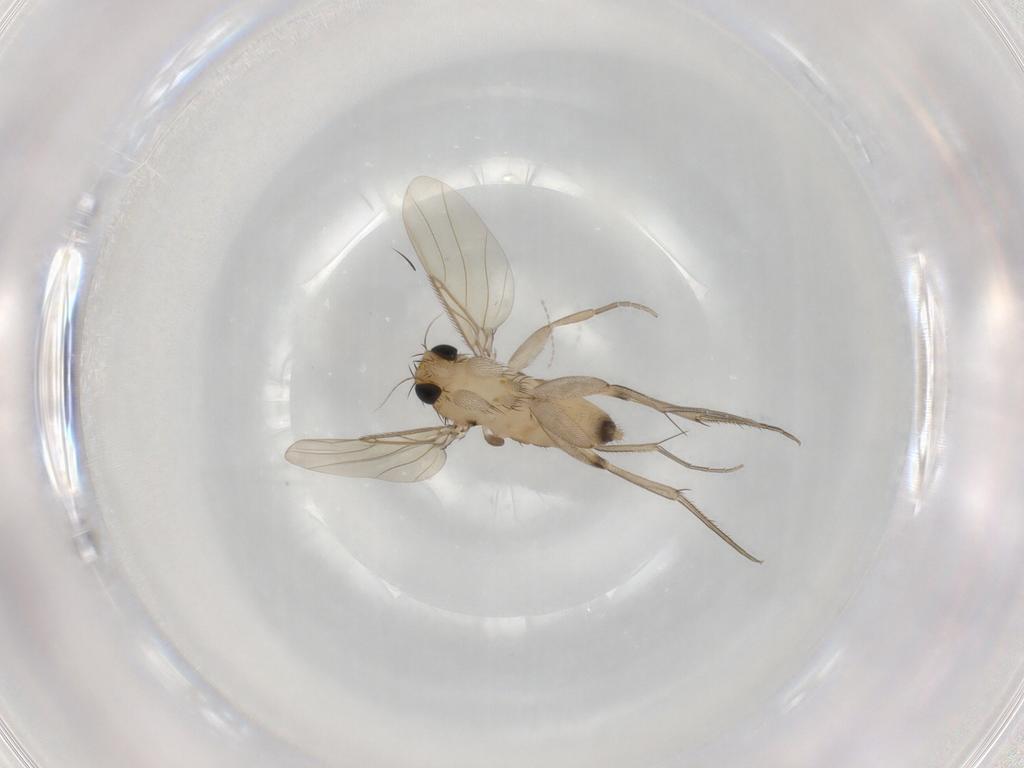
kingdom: Animalia
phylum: Arthropoda
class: Insecta
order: Diptera
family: Phoridae
